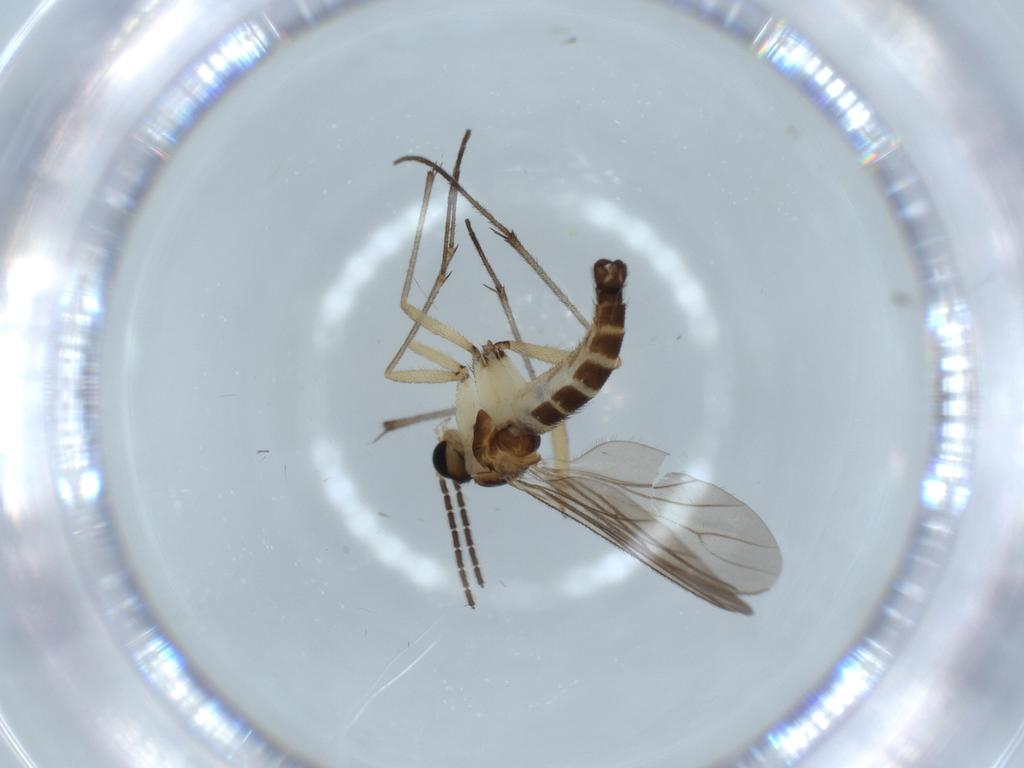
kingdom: Animalia
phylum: Arthropoda
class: Insecta
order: Diptera
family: Sciaridae
